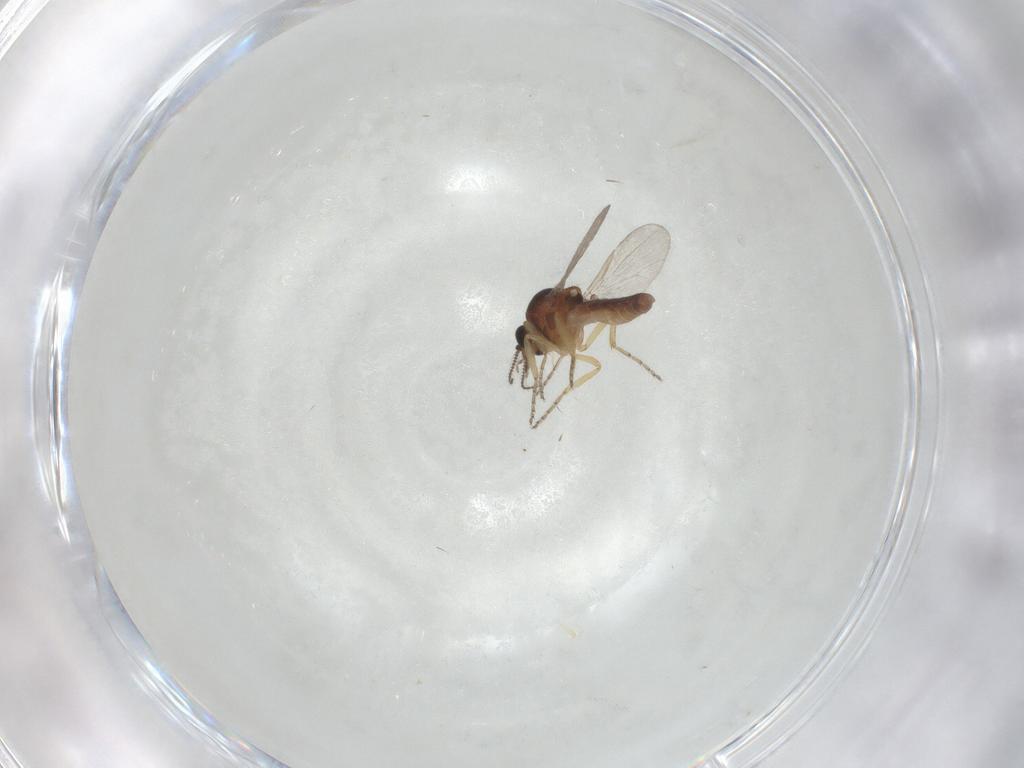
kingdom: Animalia
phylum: Arthropoda
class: Insecta
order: Diptera
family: Ceratopogonidae
